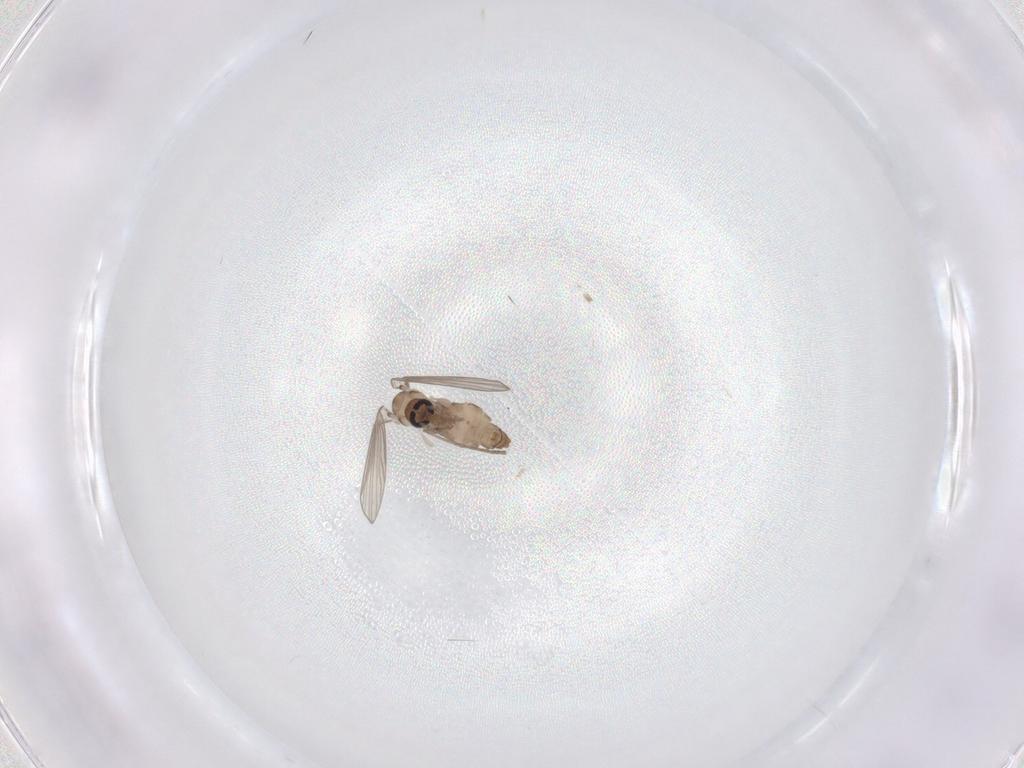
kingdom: Animalia
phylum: Arthropoda
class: Insecta
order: Diptera
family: Psychodidae
